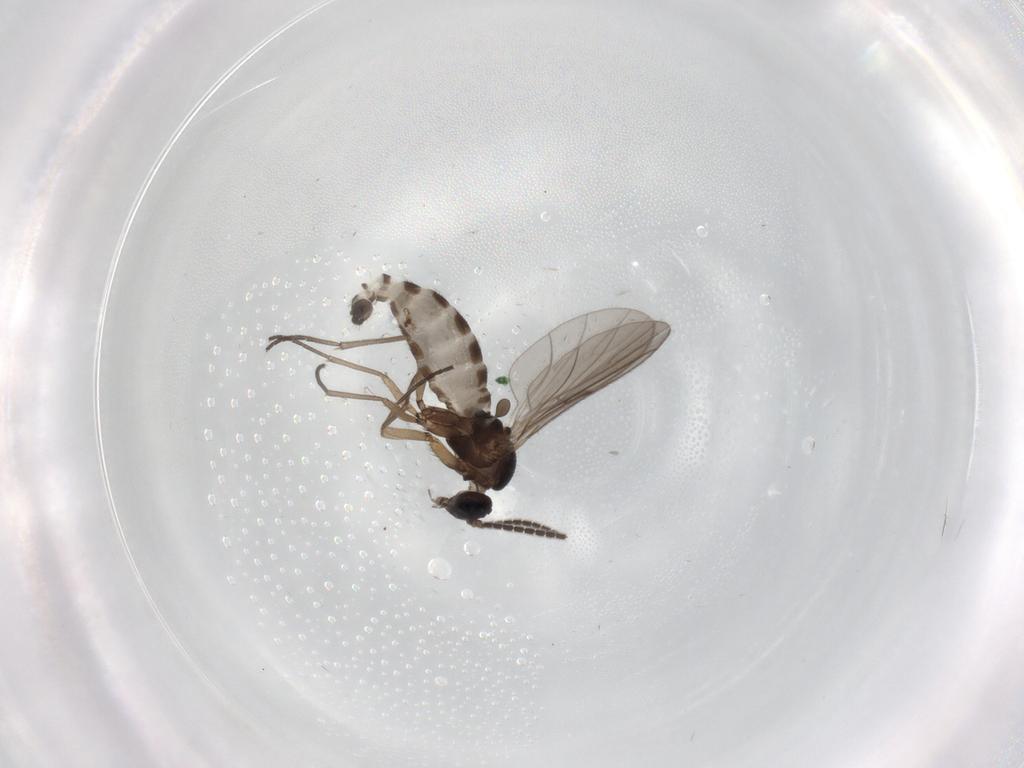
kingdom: Animalia
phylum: Arthropoda
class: Insecta
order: Diptera
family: Sciaridae
